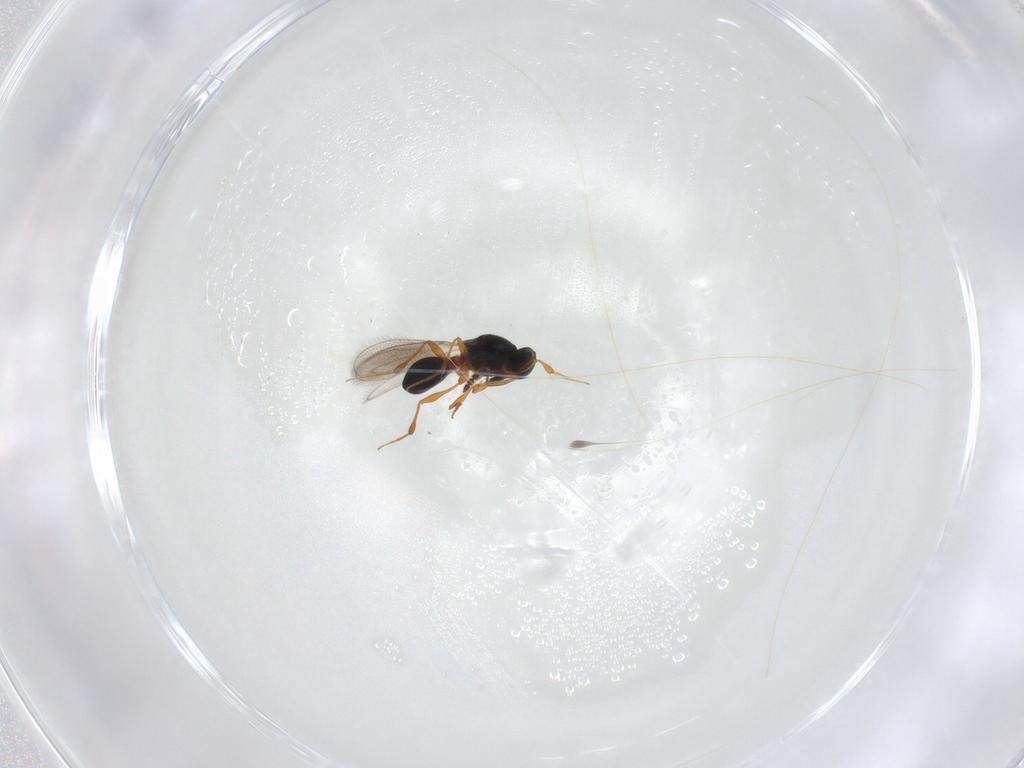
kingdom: Animalia
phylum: Arthropoda
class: Insecta
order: Hymenoptera
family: Platygastridae
